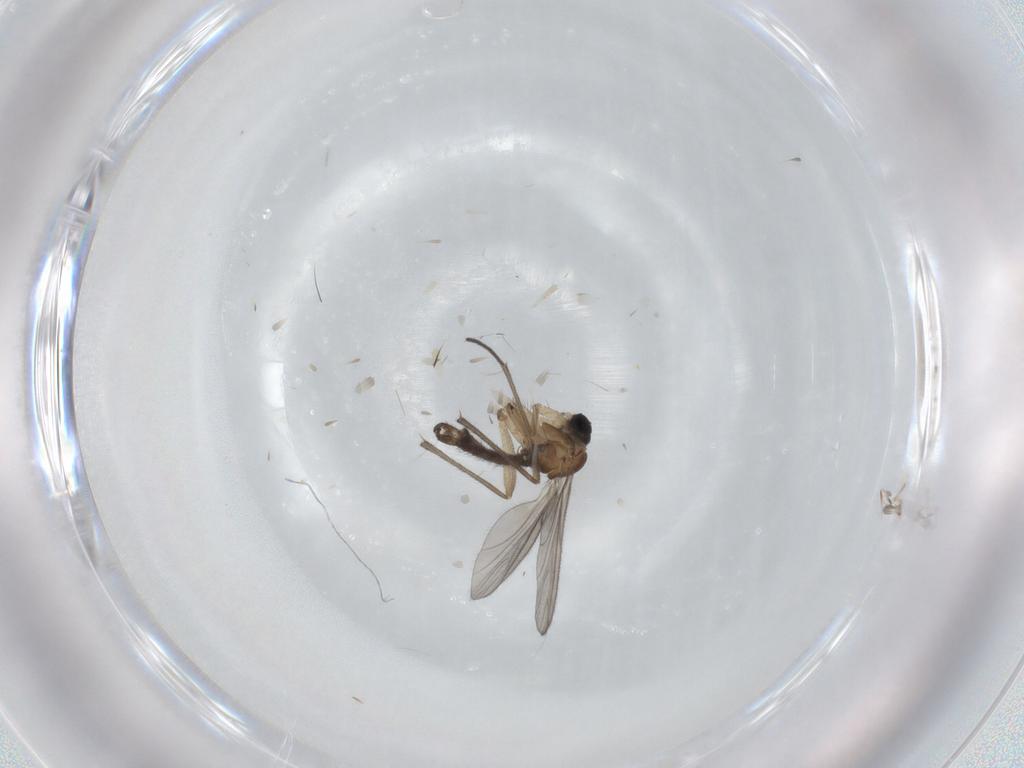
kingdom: Animalia
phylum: Arthropoda
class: Insecta
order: Diptera
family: Sciaridae
